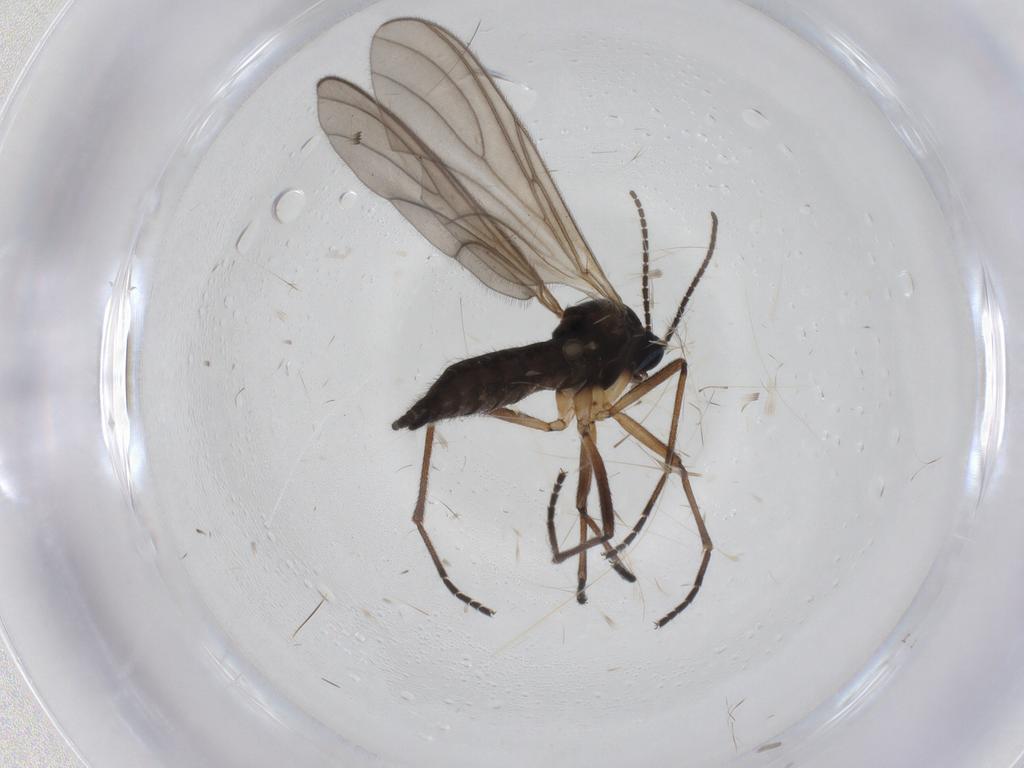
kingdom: Animalia
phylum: Arthropoda
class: Insecta
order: Diptera
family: Sciaridae
